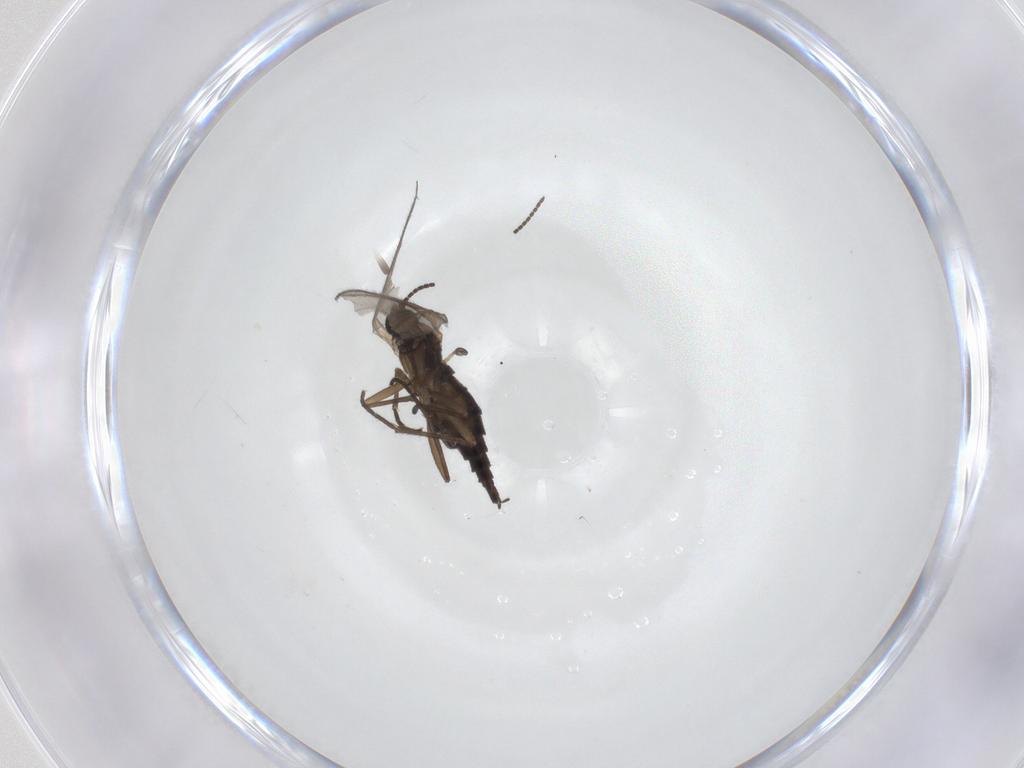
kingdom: Animalia
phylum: Arthropoda
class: Insecta
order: Diptera
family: Sciaridae
